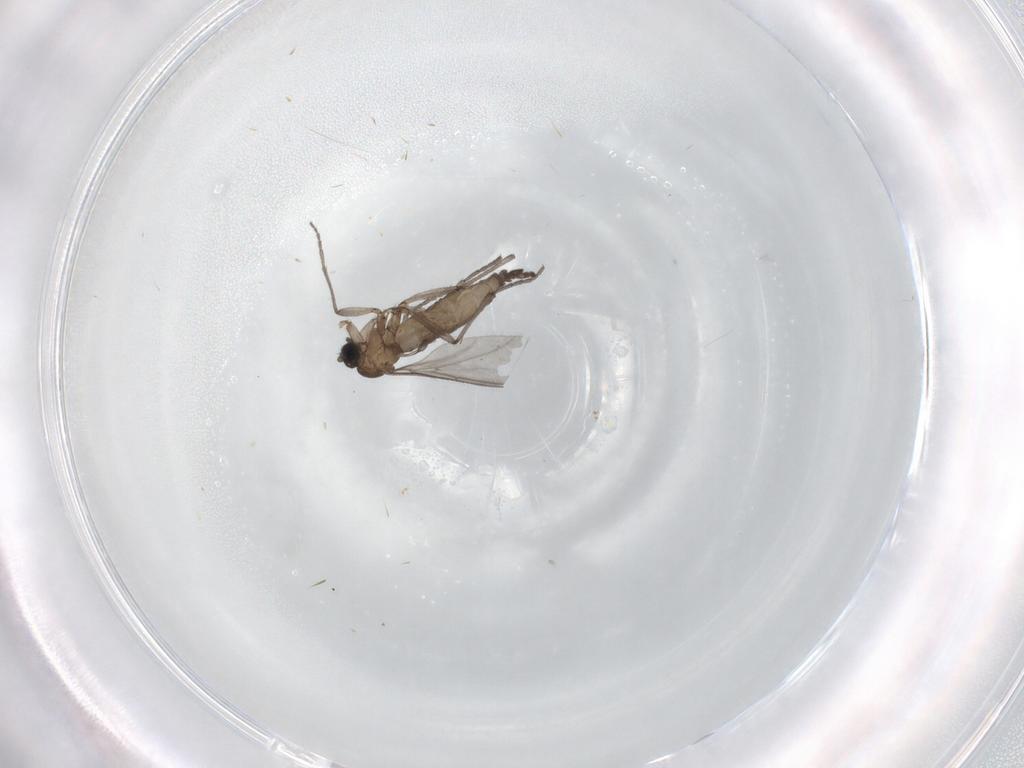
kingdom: Animalia
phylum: Arthropoda
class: Insecta
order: Diptera
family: Sciaridae
